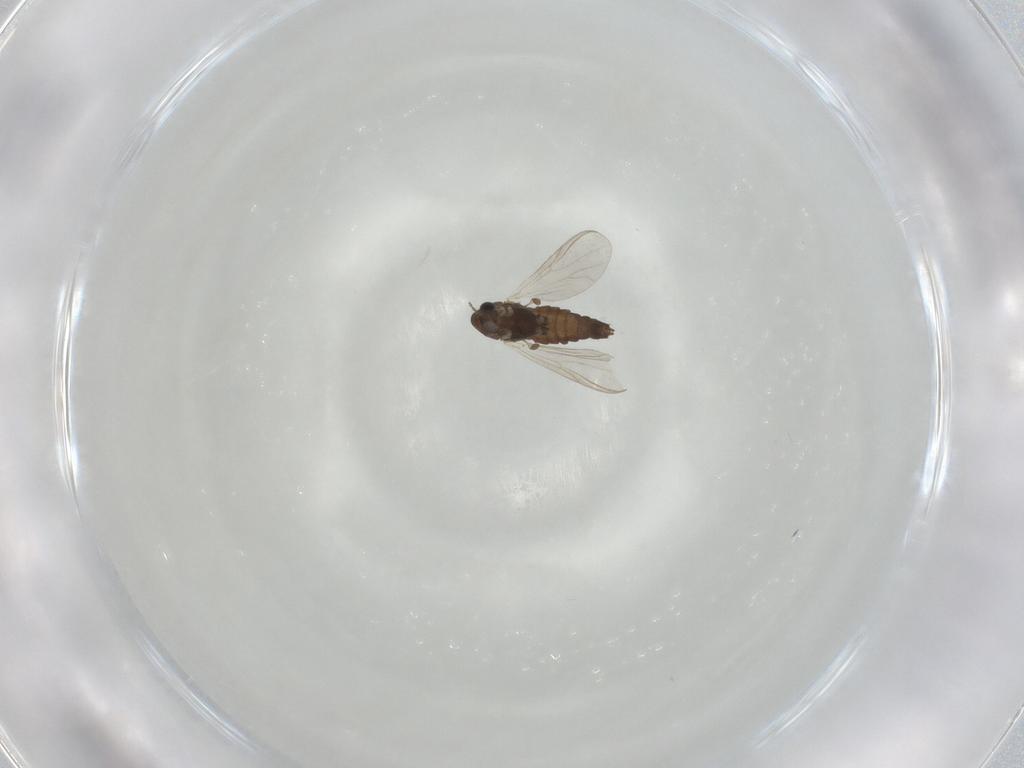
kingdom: Animalia
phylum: Arthropoda
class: Insecta
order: Diptera
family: Chironomidae
